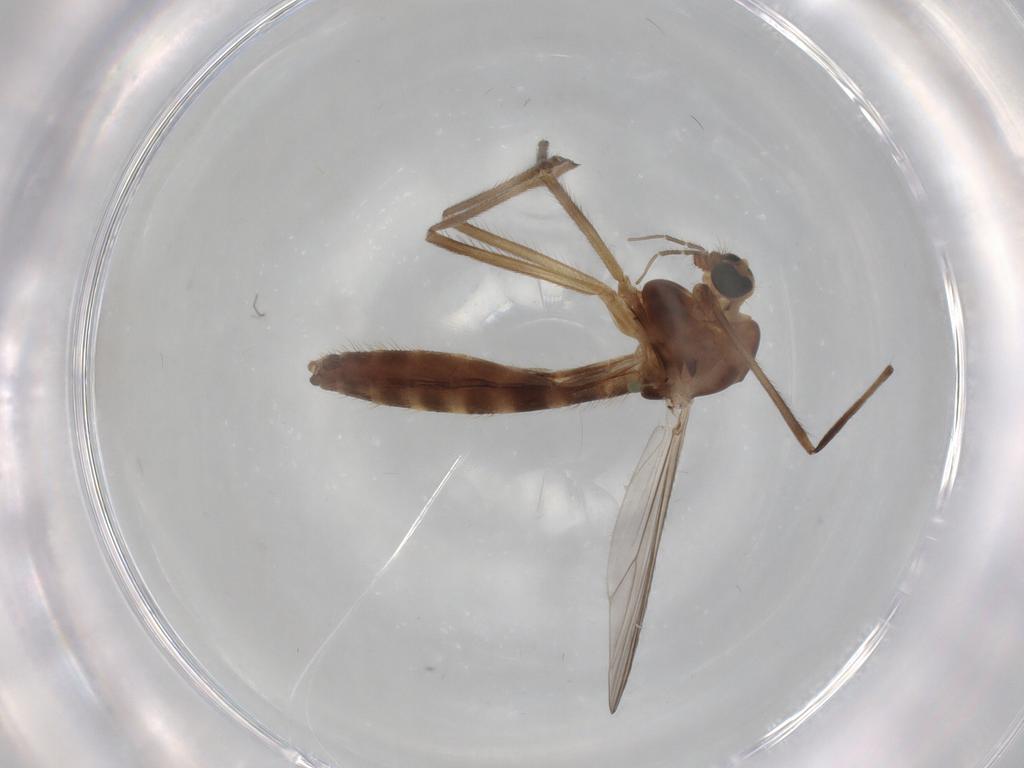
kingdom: Animalia
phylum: Arthropoda
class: Insecta
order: Diptera
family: Chironomidae
